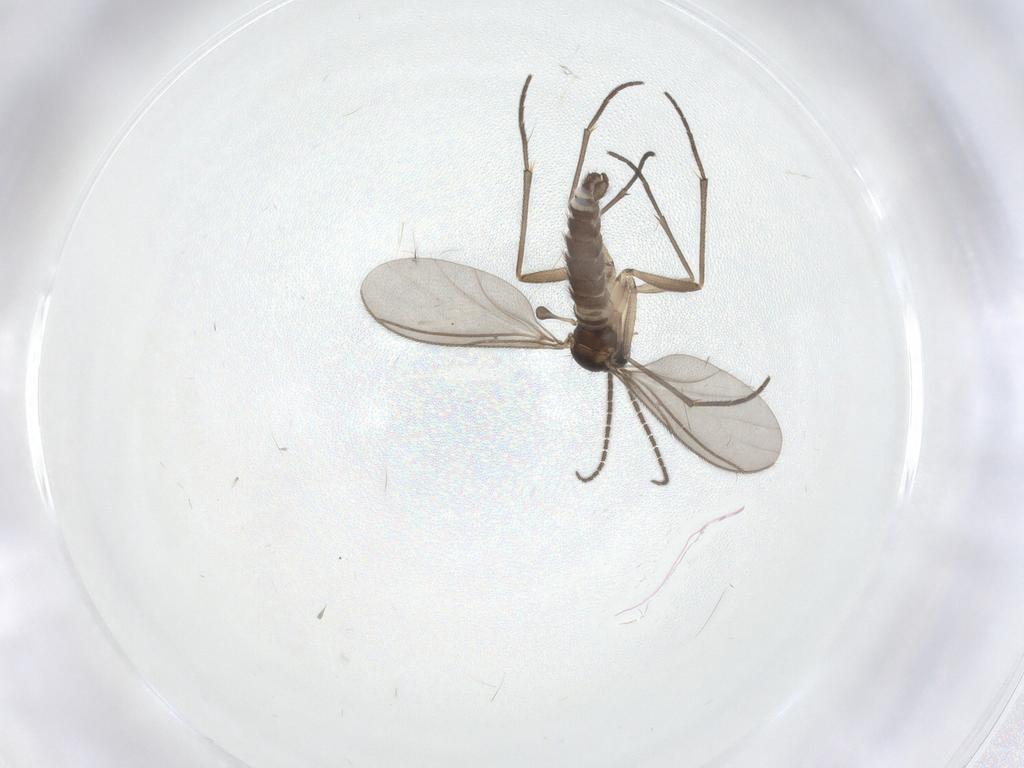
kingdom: Animalia
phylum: Arthropoda
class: Insecta
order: Diptera
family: Sciaridae
